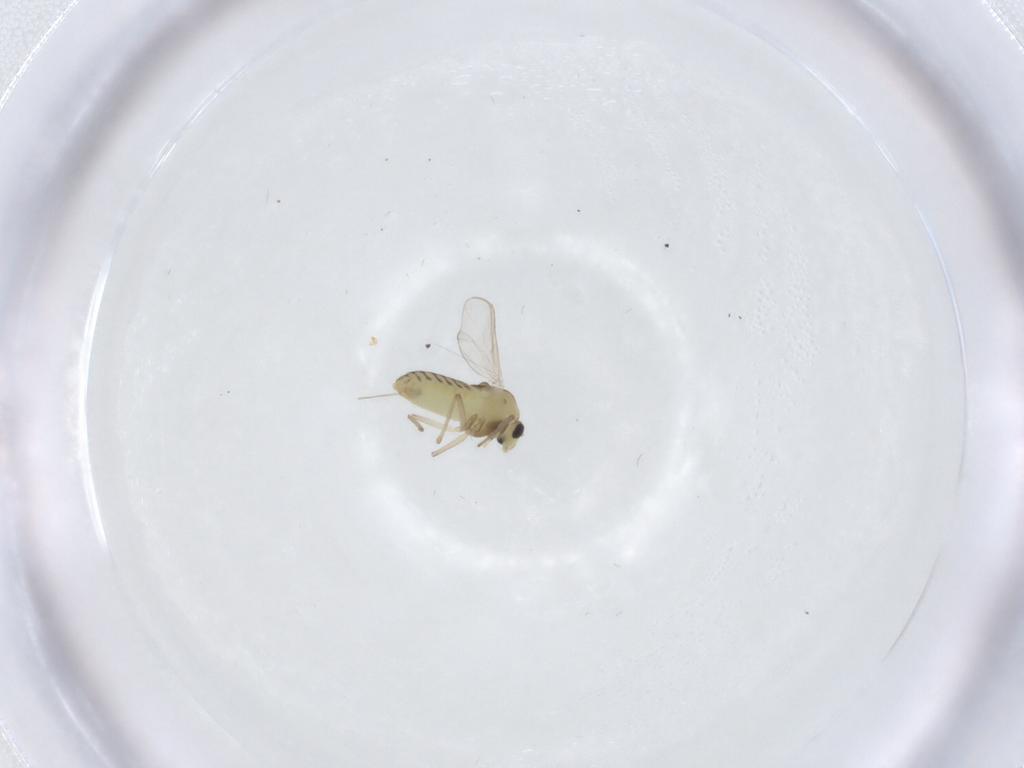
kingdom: Animalia
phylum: Arthropoda
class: Insecta
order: Diptera
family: Chironomidae
